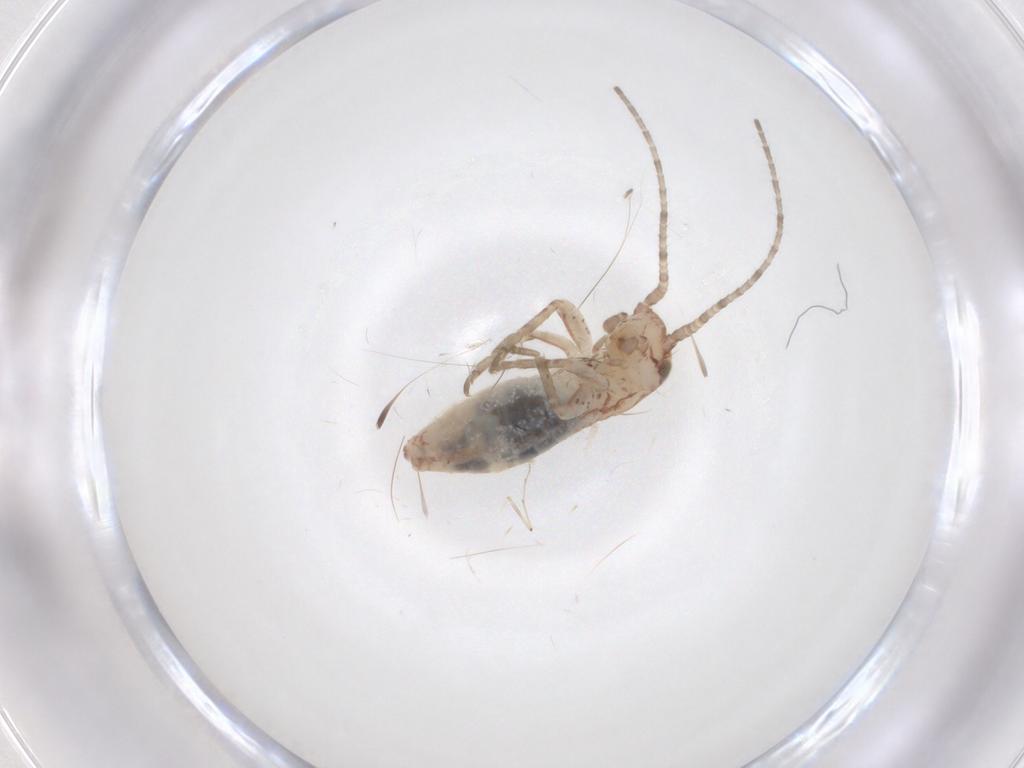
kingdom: Animalia
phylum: Arthropoda
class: Insecta
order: Orthoptera
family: Mogoplistidae
